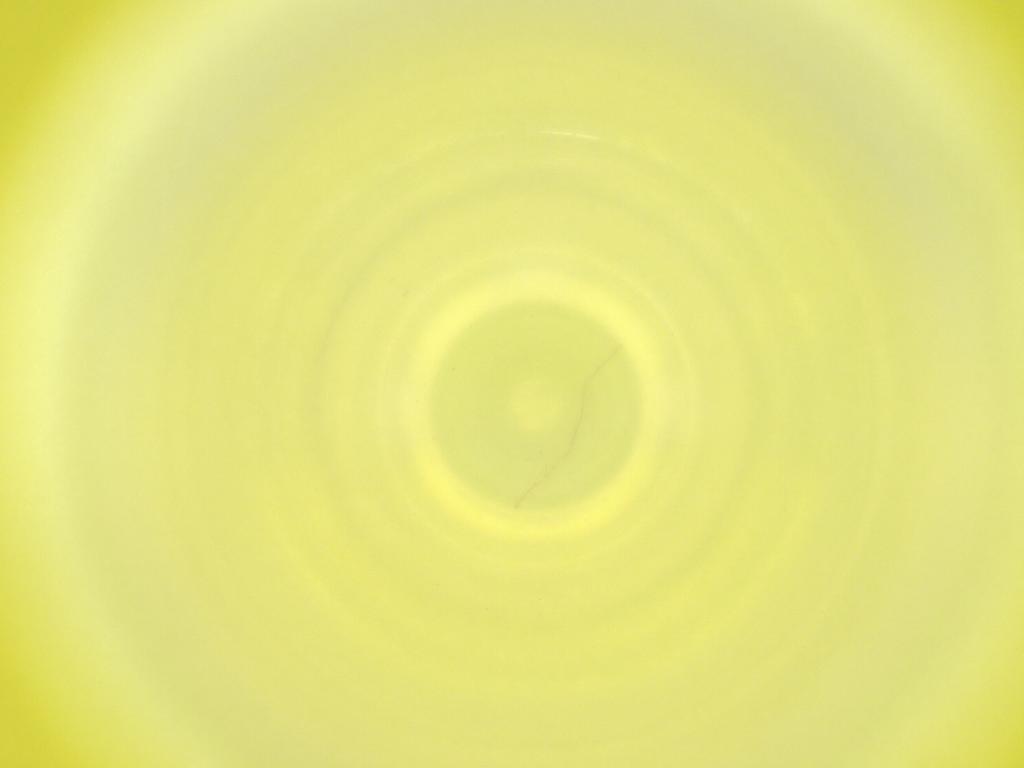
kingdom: Animalia
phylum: Arthropoda
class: Insecta
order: Diptera
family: Cecidomyiidae
